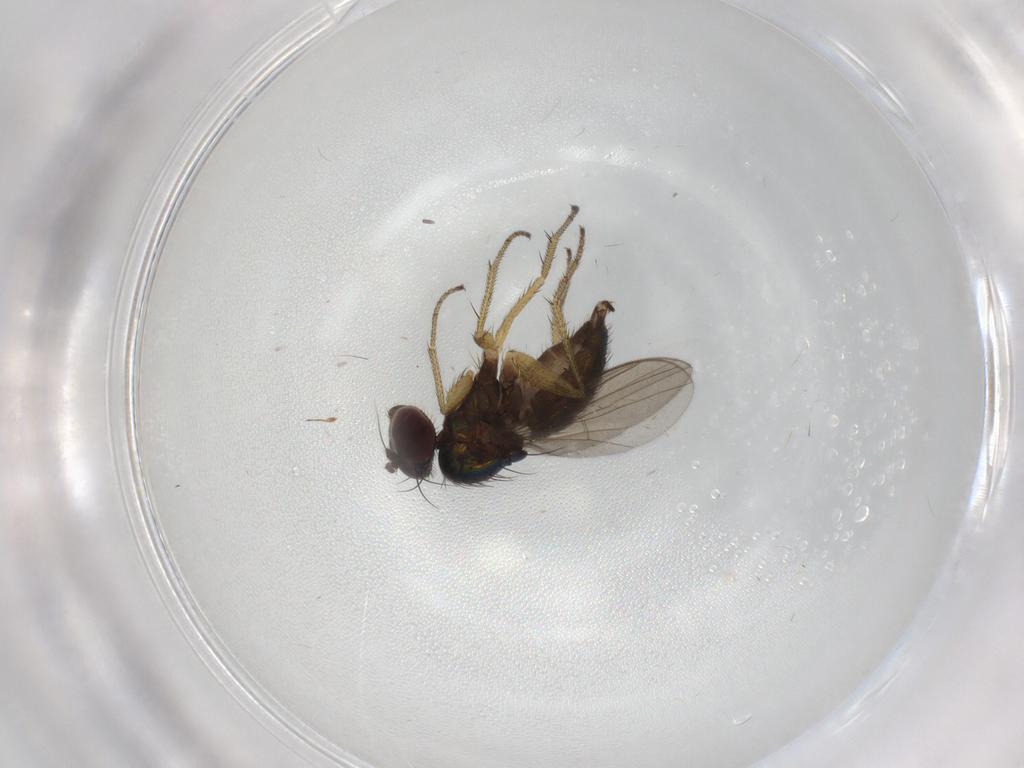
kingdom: Animalia
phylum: Arthropoda
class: Insecta
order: Diptera
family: Dolichopodidae
